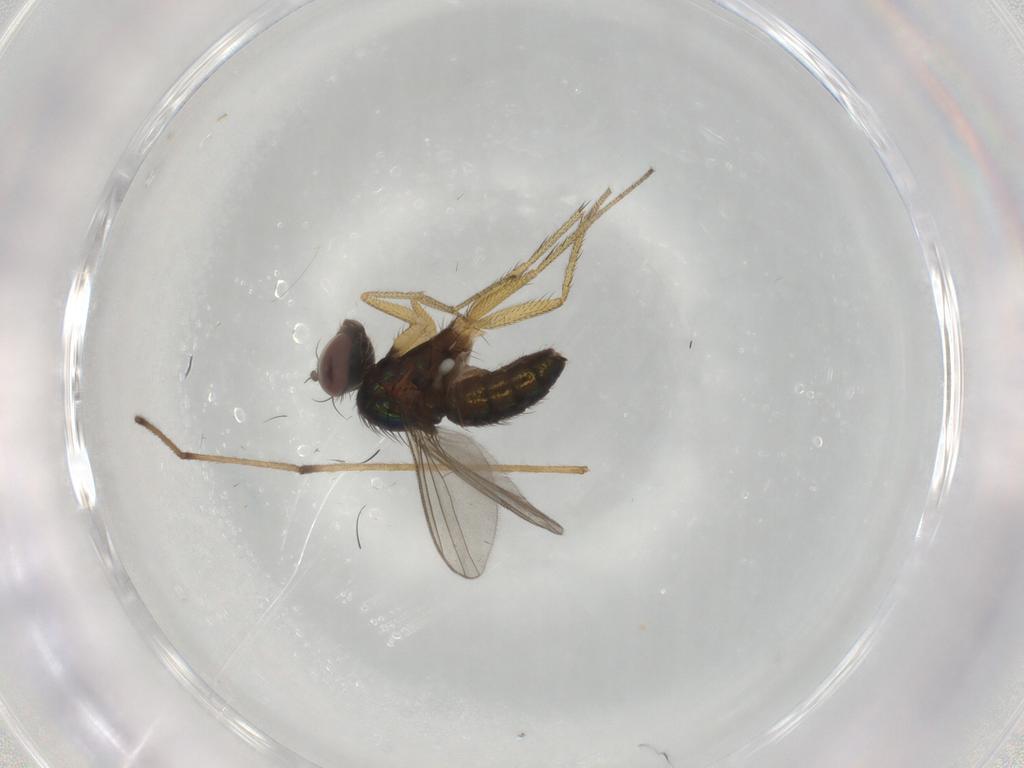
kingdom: Animalia
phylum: Arthropoda
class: Insecta
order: Diptera
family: Dolichopodidae
